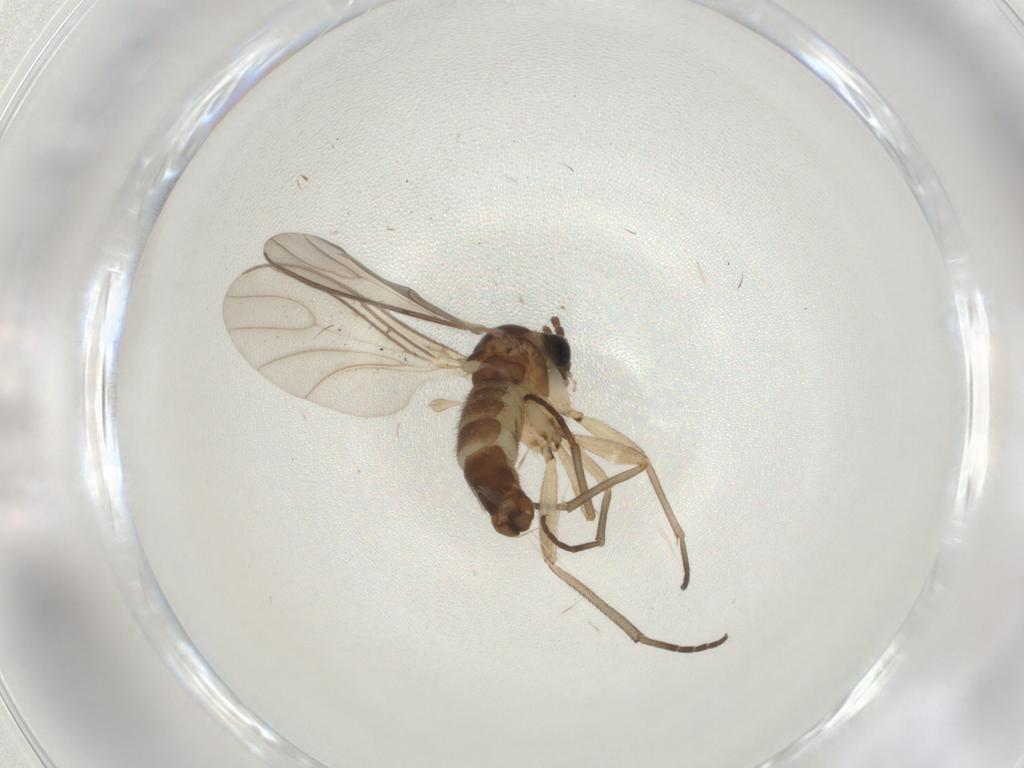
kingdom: Animalia
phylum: Arthropoda
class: Insecta
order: Diptera
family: Sciaridae
